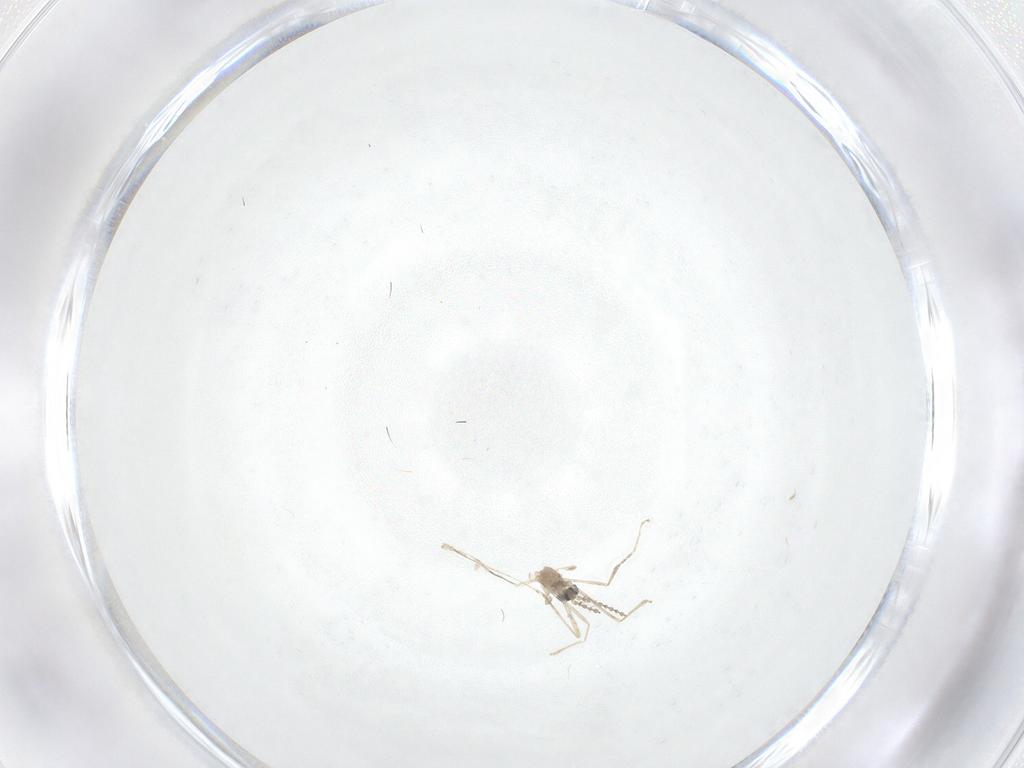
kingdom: Animalia
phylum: Arthropoda
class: Insecta
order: Diptera
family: Cecidomyiidae
